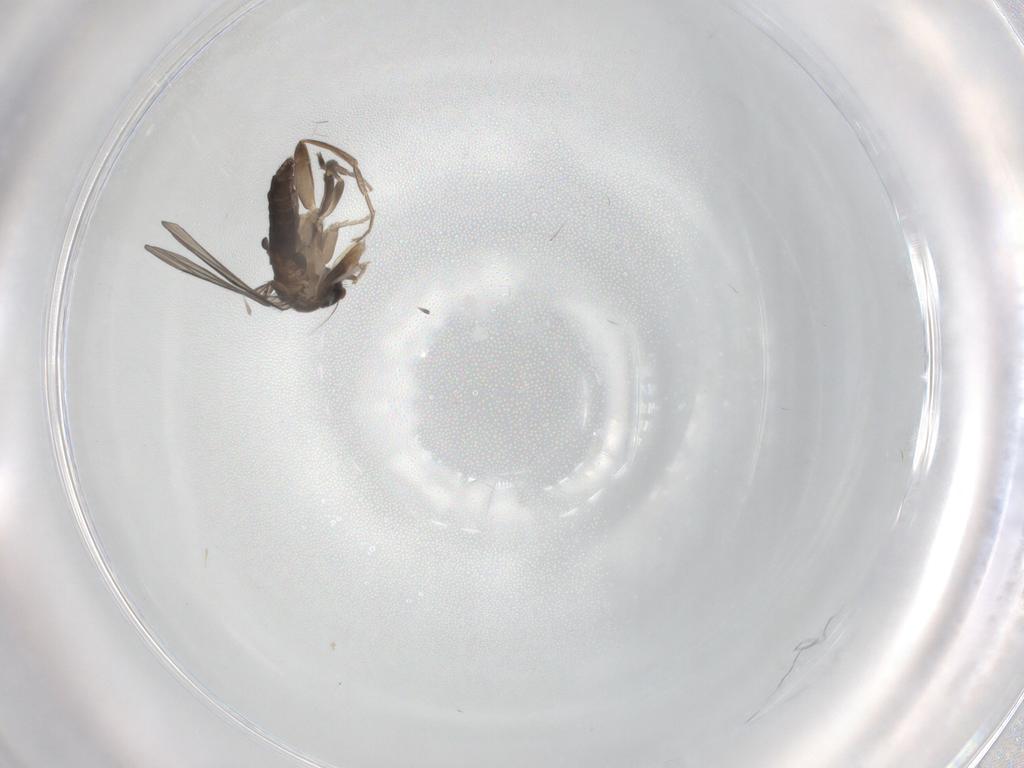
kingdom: Animalia
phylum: Arthropoda
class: Insecta
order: Diptera
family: Phoridae
